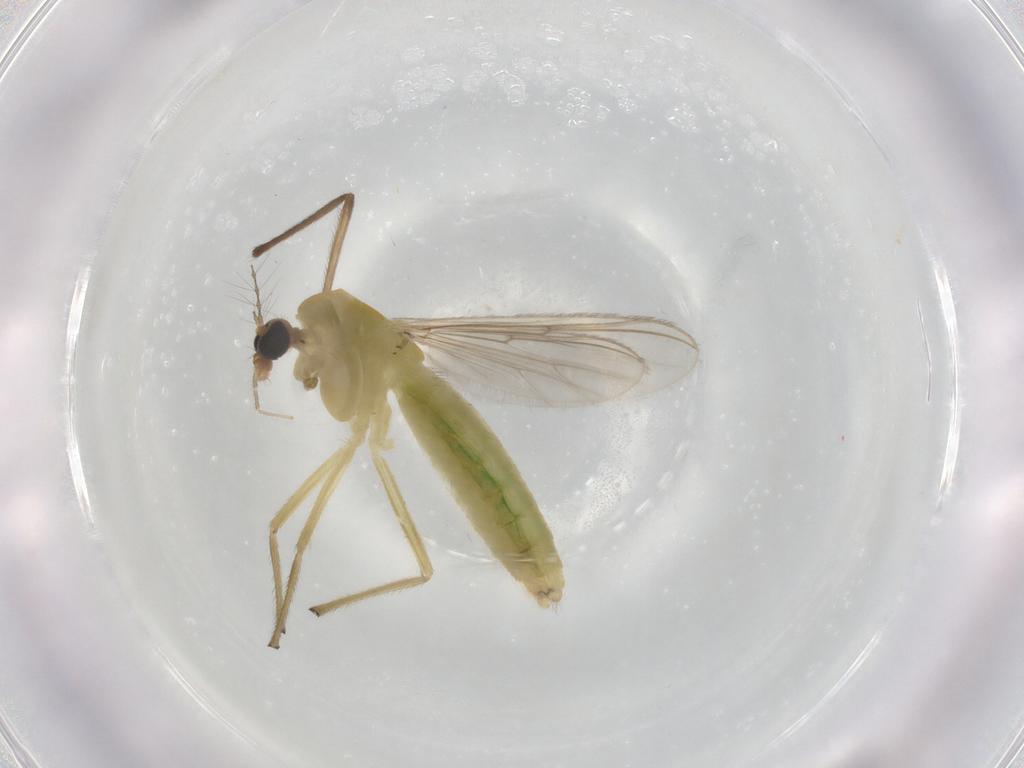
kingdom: Animalia
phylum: Arthropoda
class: Insecta
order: Diptera
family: Chironomidae
